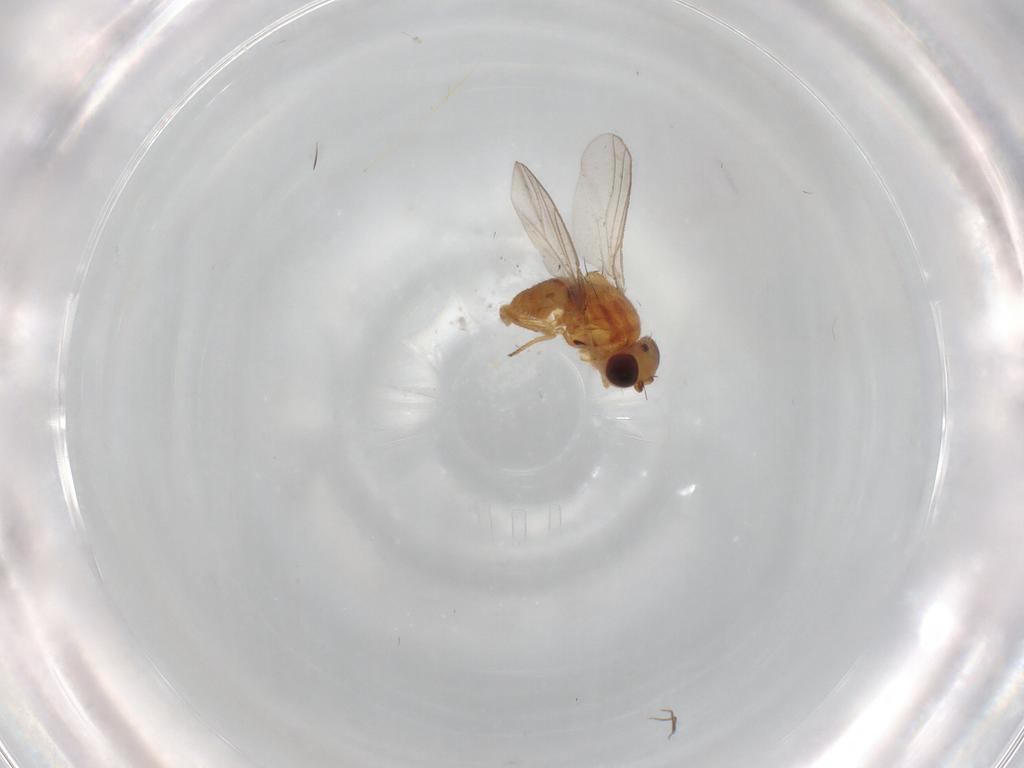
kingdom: Animalia
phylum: Arthropoda
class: Insecta
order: Diptera
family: Chloropidae
